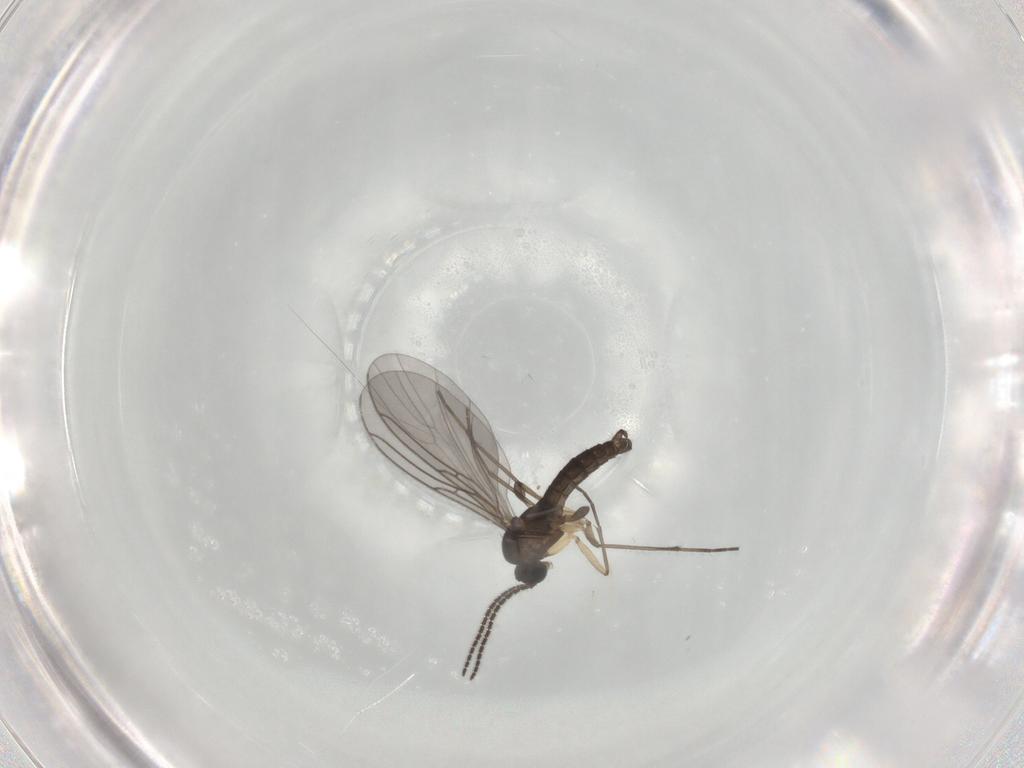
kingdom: Animalia
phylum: Arthropoda
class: Insecta
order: Diptera
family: Sciaridae
